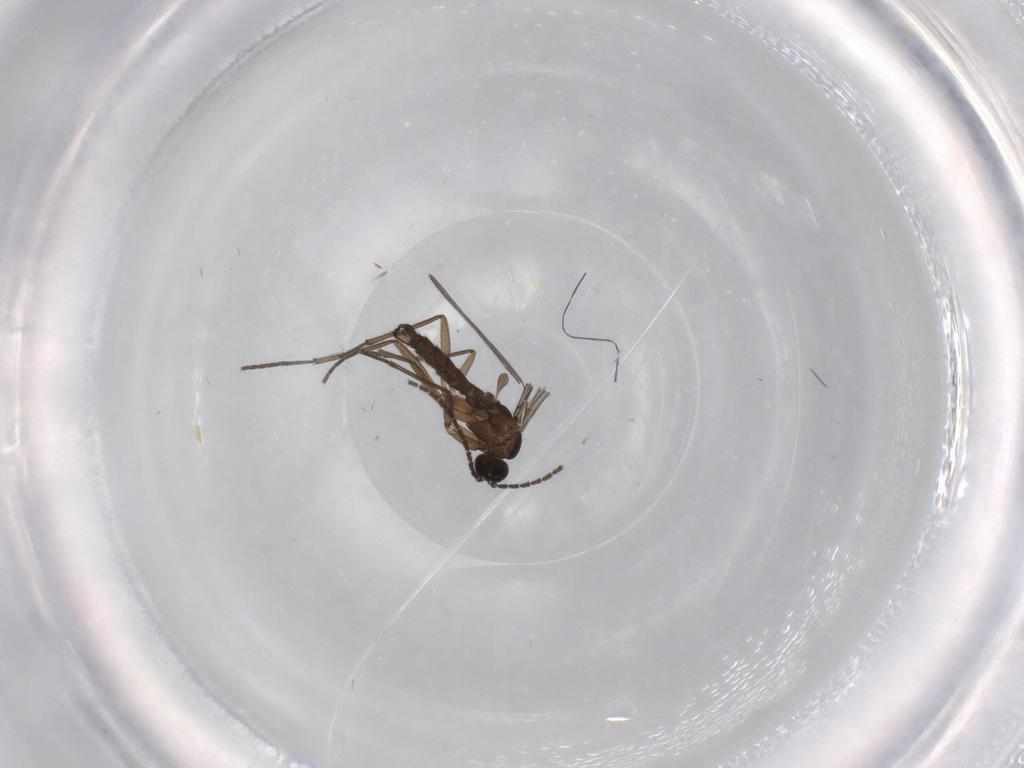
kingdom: Animalia
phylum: Arthropoda
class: Insecta
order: Diptera
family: Sciaridae
